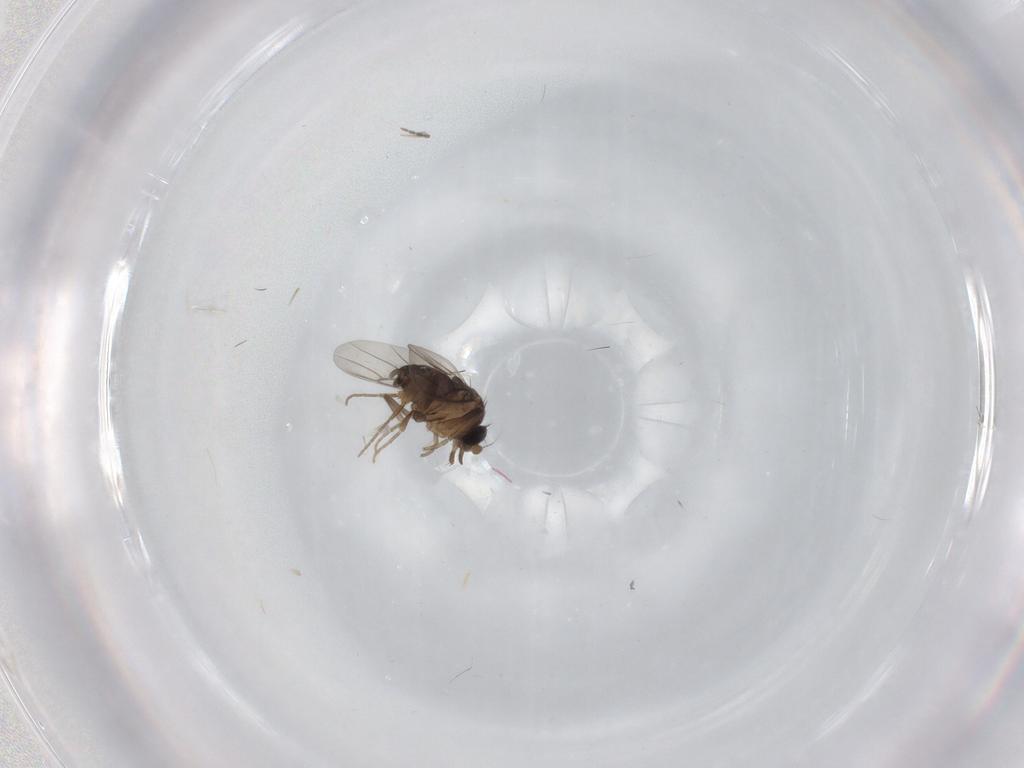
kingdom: Animalia
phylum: Arthropoda
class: Insecta
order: Diptera
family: Phoridae
